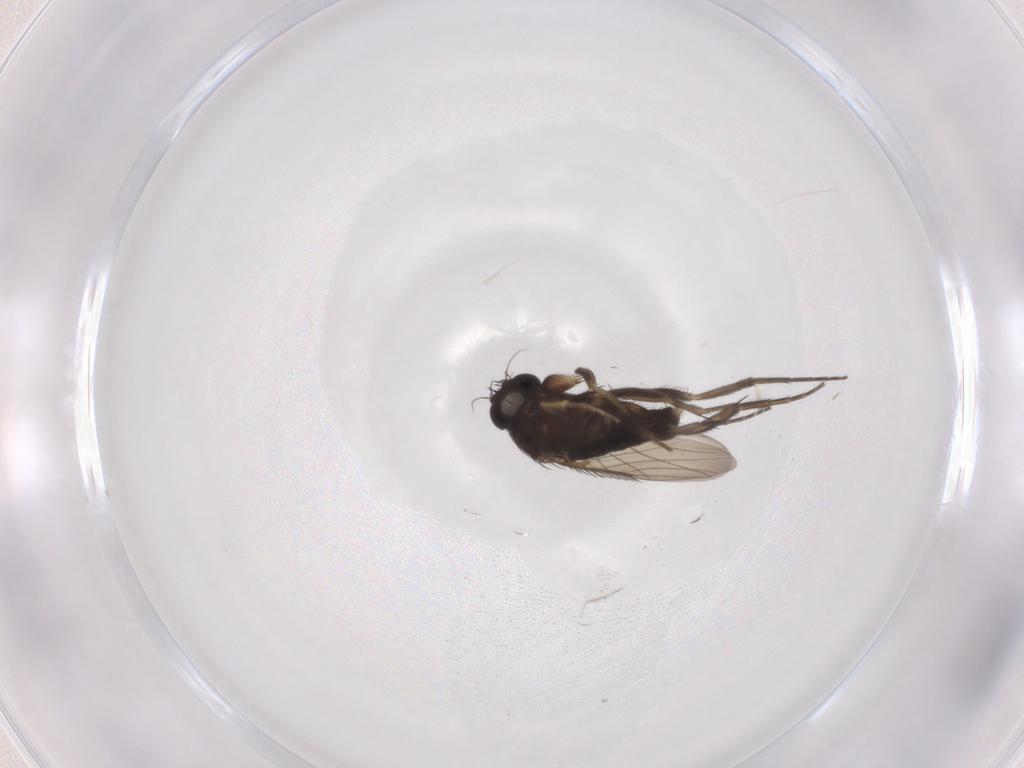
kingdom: Animalia
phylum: Arthropoda
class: Insecta
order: Diptera
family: Phoridae
